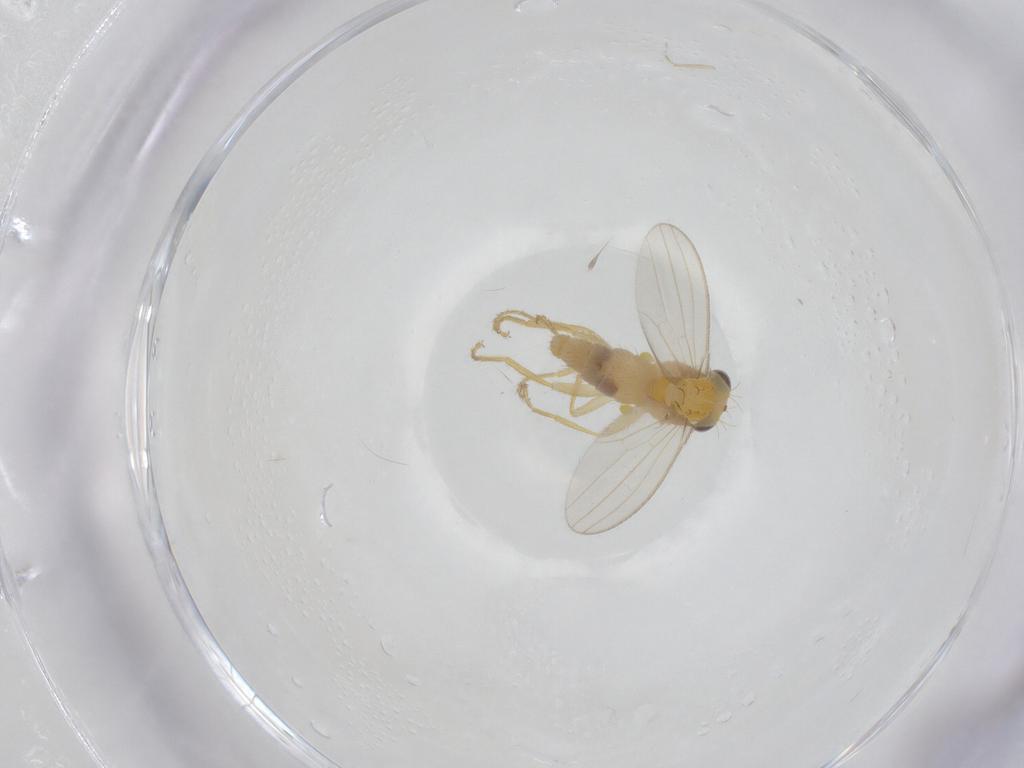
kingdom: Animalia
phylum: Arthropoda
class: Insecta
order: Diptera
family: Chyromyidae
